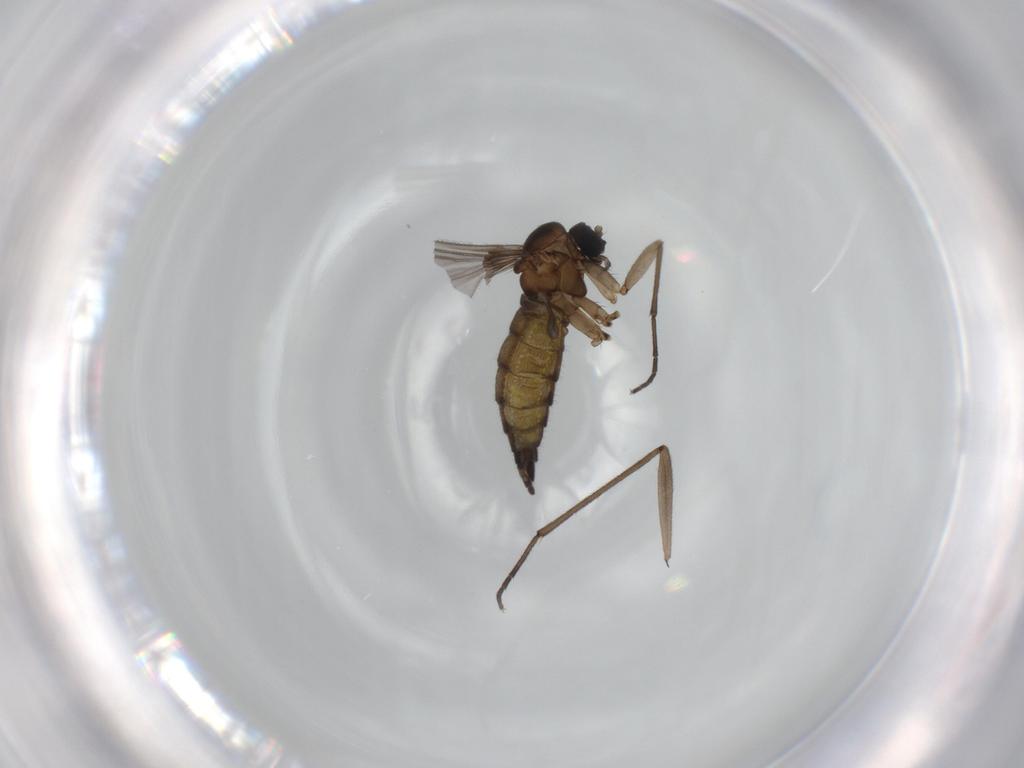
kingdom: Animalia
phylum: Arthropoda
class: Insecta
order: Diptera
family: Sciaridae
